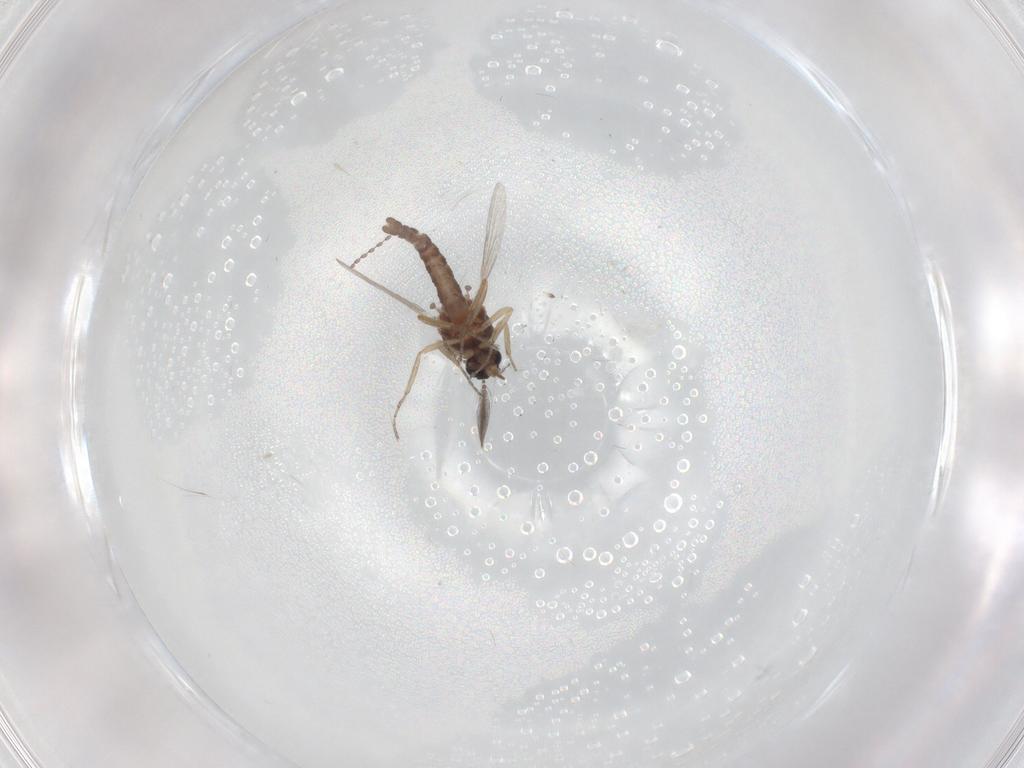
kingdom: Animalia
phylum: Arthropoda
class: Insecta
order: Diptera
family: Ceratopogonidae
